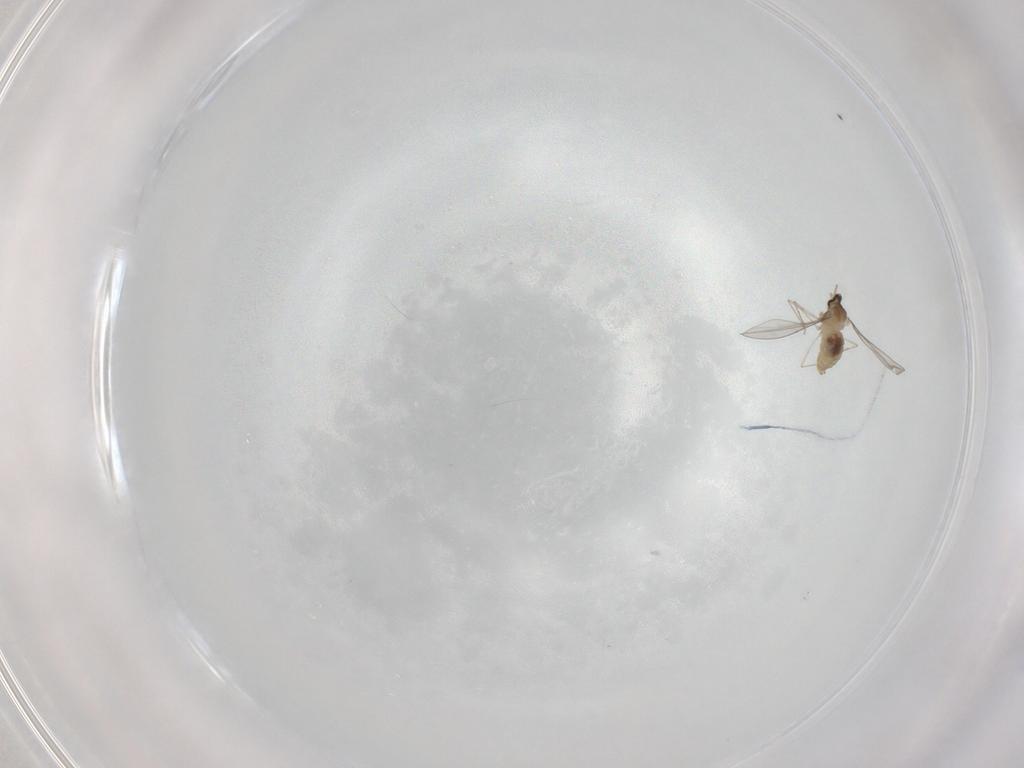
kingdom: Animalia
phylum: Arthropoda
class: Insecta
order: Diptera
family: Cecidomyiidae
